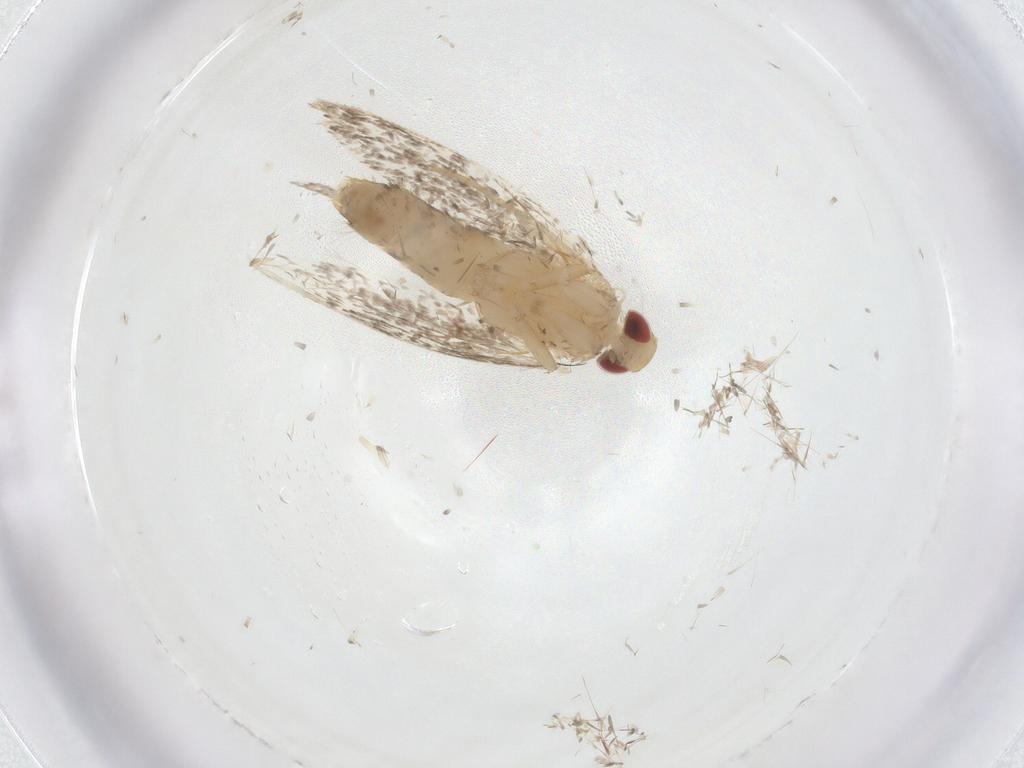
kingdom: Animalia
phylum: Arthropoda
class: Insecta
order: Lepidoptera
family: Cosmopterigidae
